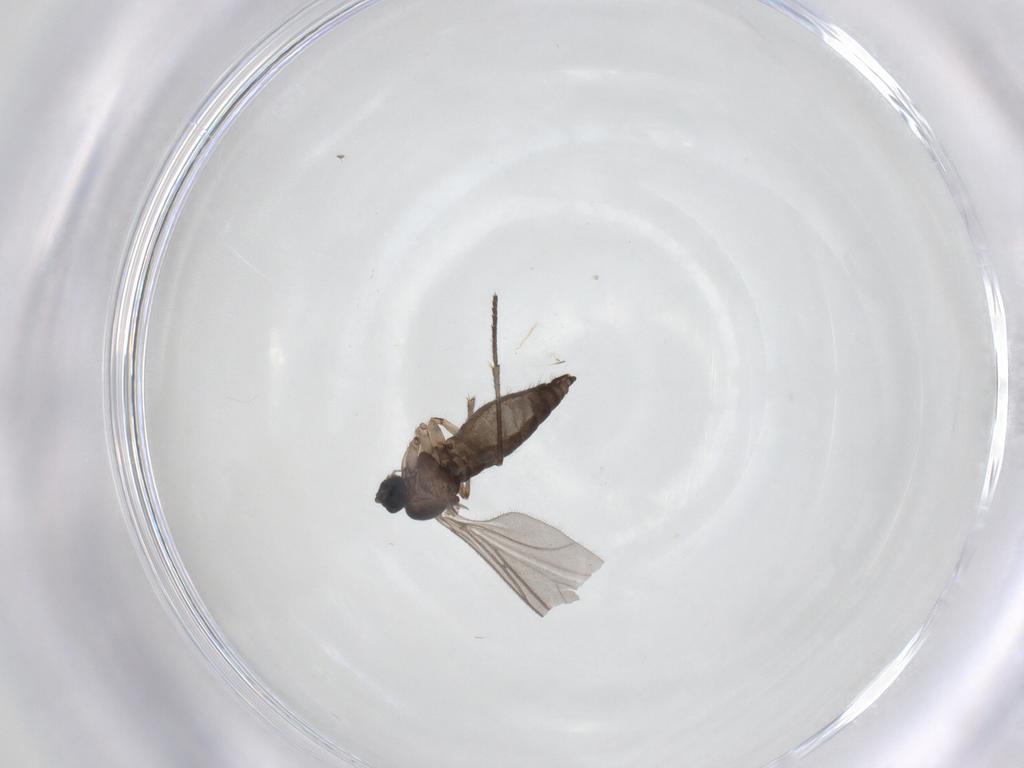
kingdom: Animalia
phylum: Arthropoda
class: Insecta
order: Diptera
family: Sciaridae
